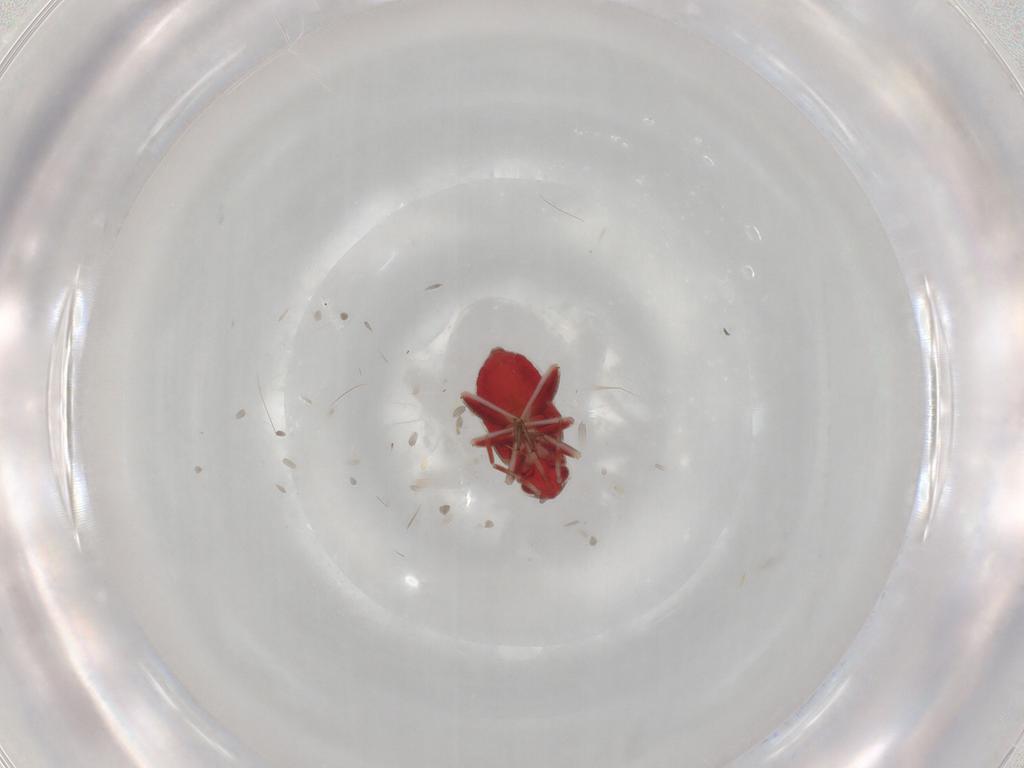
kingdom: Animalia
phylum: Arthropoda
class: Insecta
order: Hemiptera
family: Miridae
